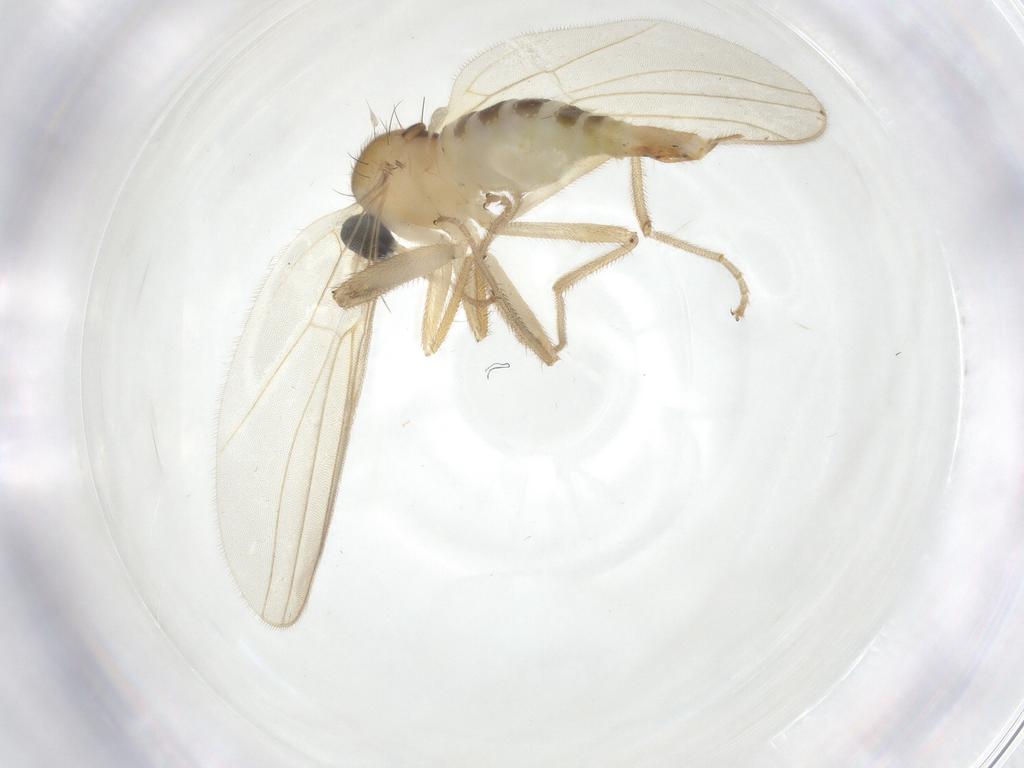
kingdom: Animalia
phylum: Arthropoda
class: Insecta
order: Diptera
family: Hybotidae
